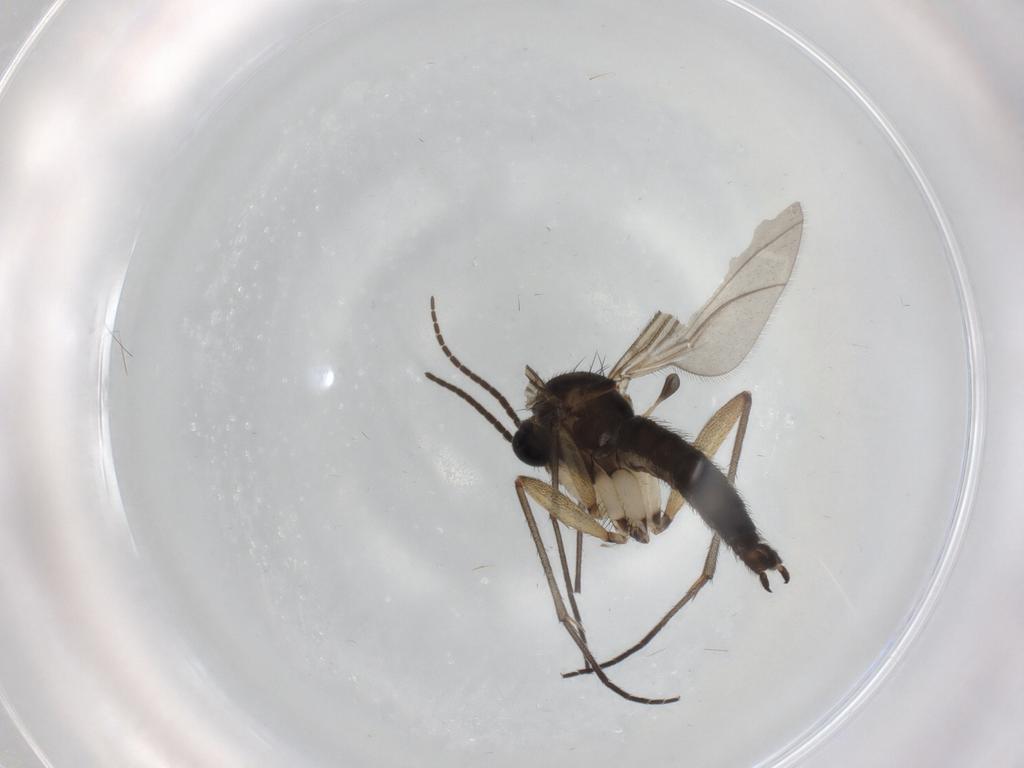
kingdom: Animalia
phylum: Arthropoda
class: Insecta
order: Diptera
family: Sciaridae
